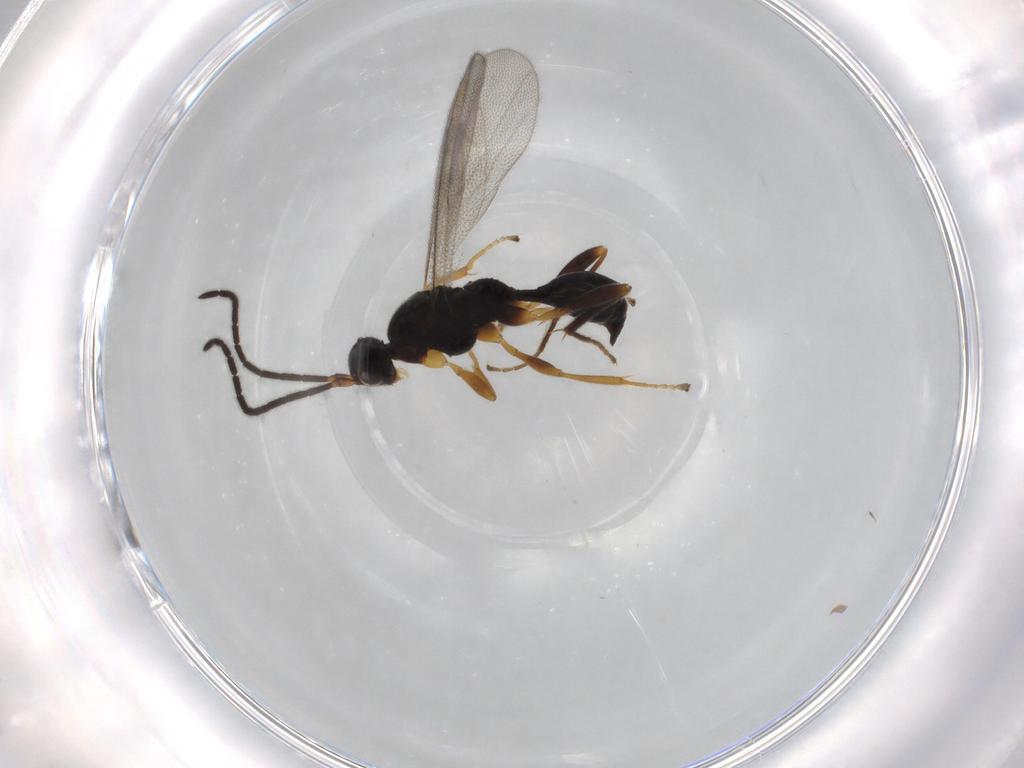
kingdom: Animalia
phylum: Arthropoda
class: Insecta
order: Hymenoptera
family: Proctotrupidae
